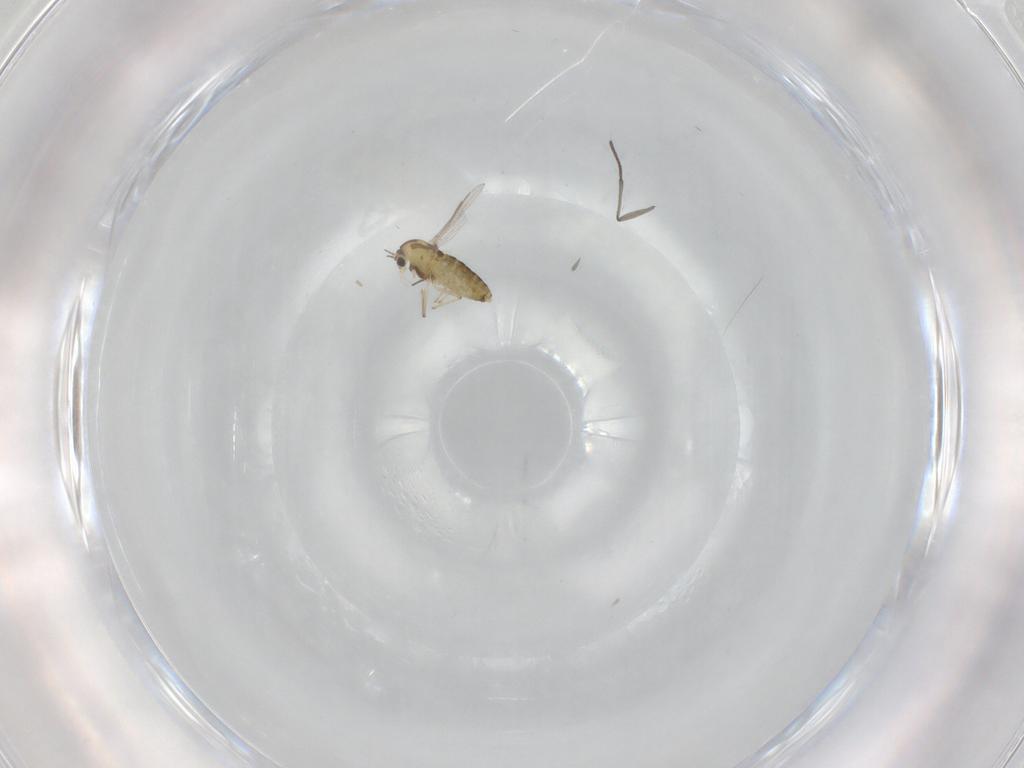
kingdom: Animalia
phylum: Arthropoda
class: Insecta
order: Diptera
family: Chironomidae
